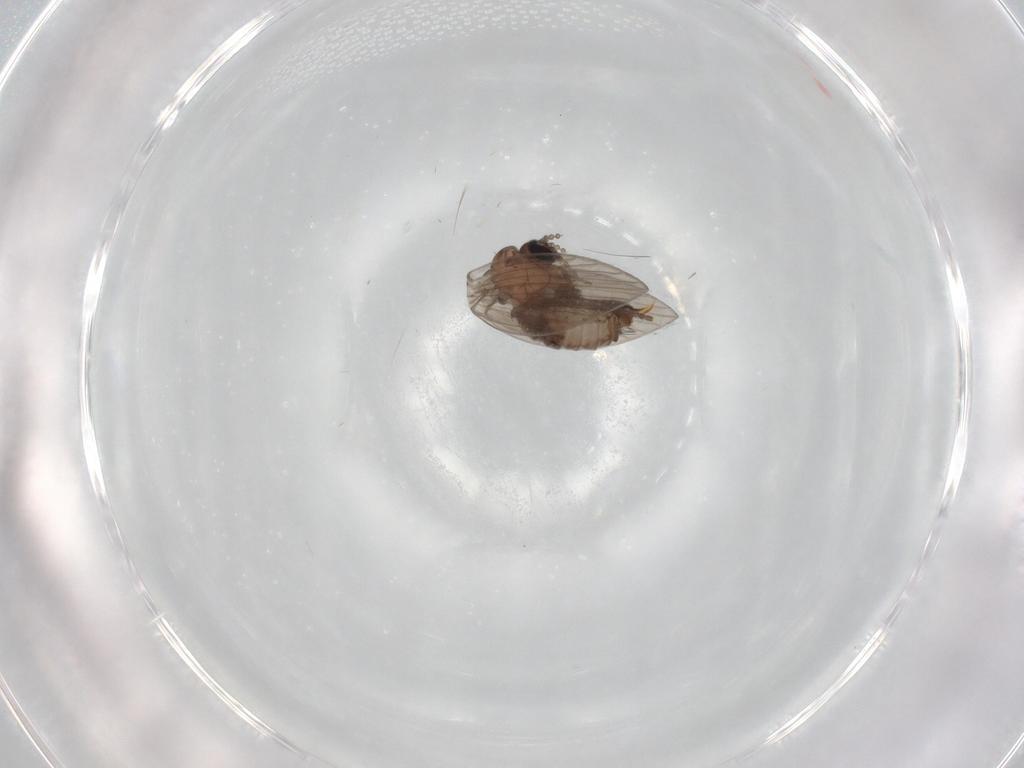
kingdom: Animalia
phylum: Arthropoda
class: Insecta
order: Diptera
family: Psychodidae
